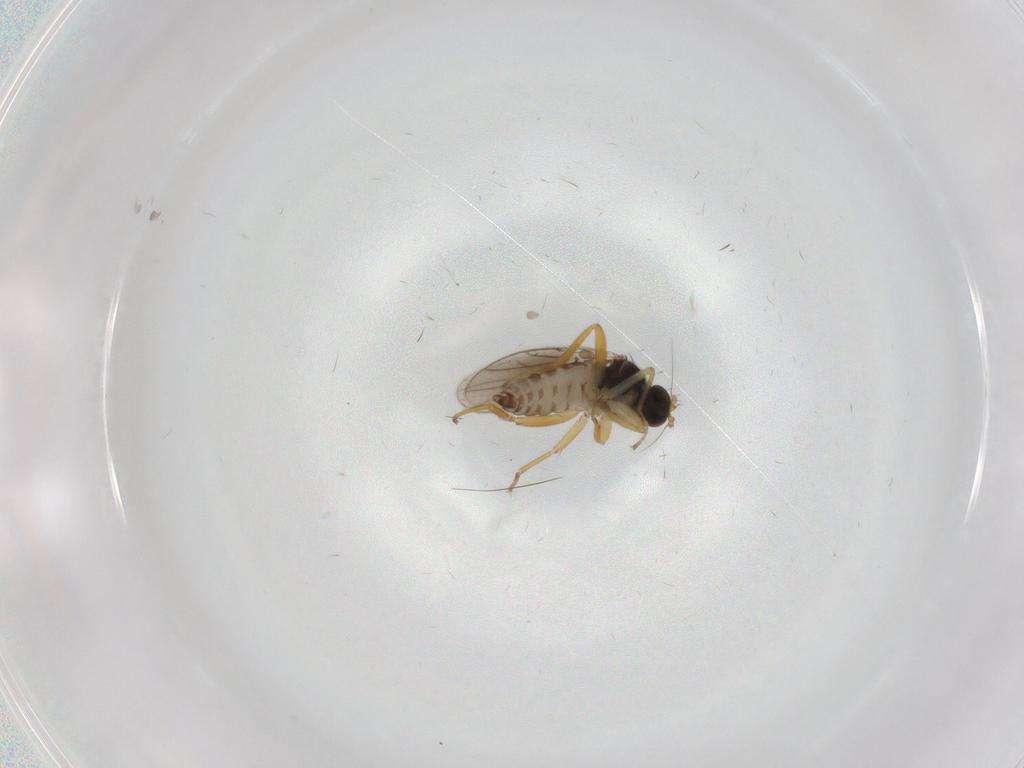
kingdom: Animalia
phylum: Arthropoda
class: Insecta
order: Diptera
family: Hybotidae
